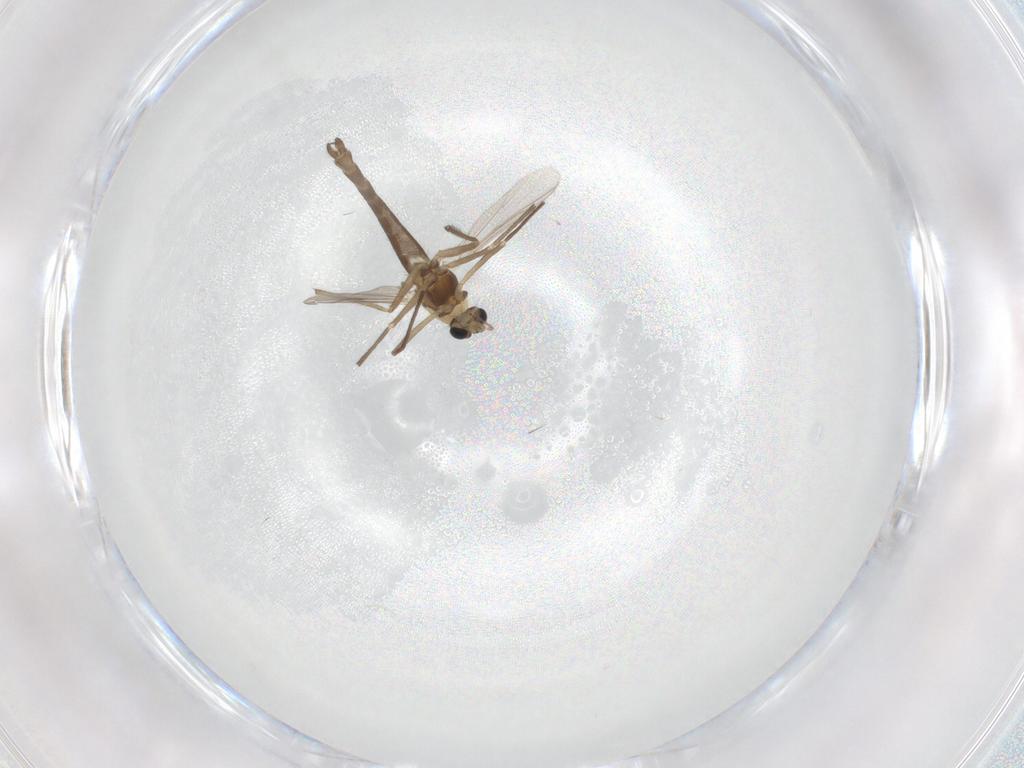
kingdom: Animalia
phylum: Arthropoda
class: Insecta
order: Diptera
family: Chironomidae
